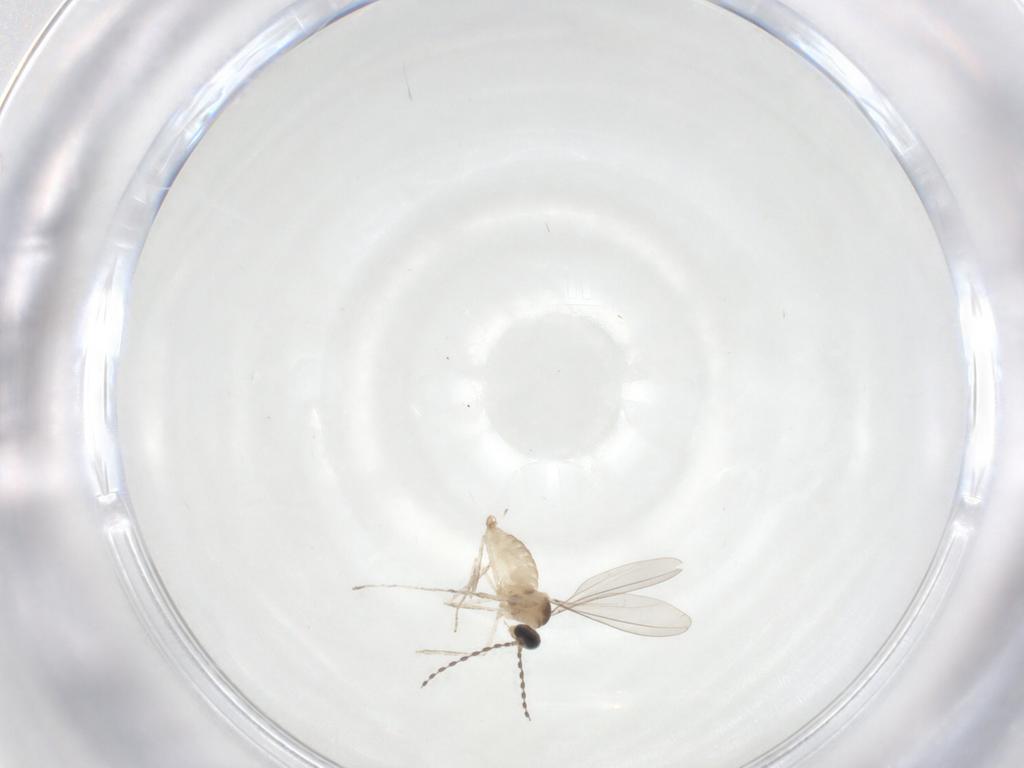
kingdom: Animalia
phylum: Arthropoda
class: Insecta
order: Diptera
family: Cecidomyiidae
